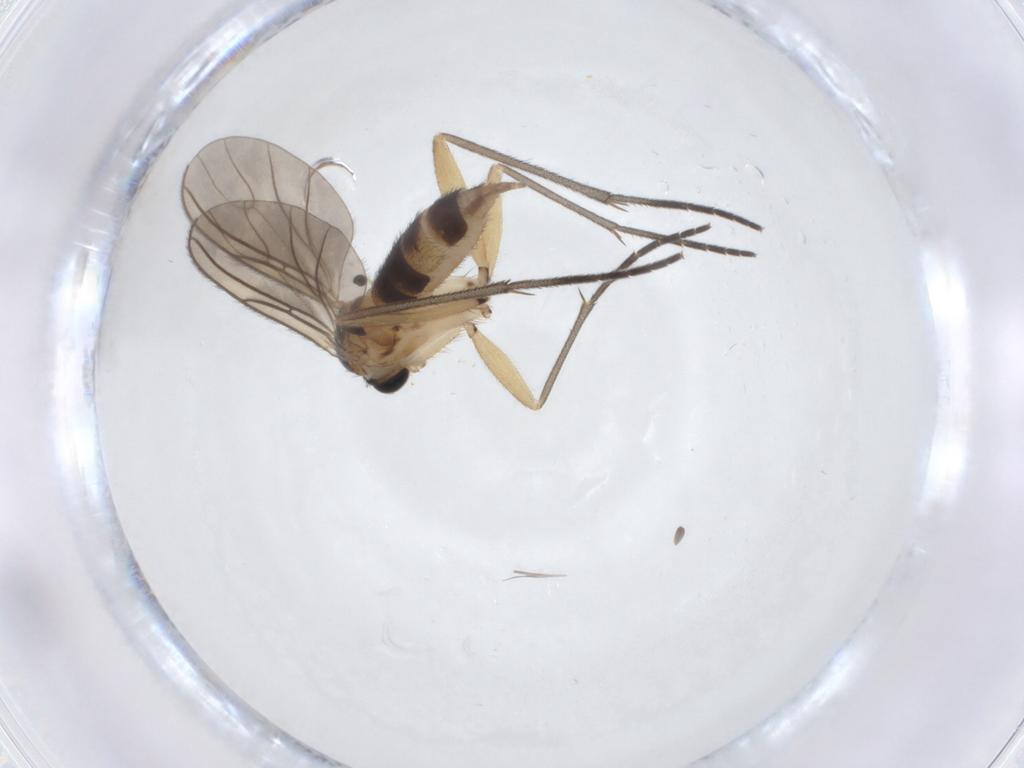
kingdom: Animalia
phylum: Arthropoda
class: Insecta
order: Diptera
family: Sciaridae
